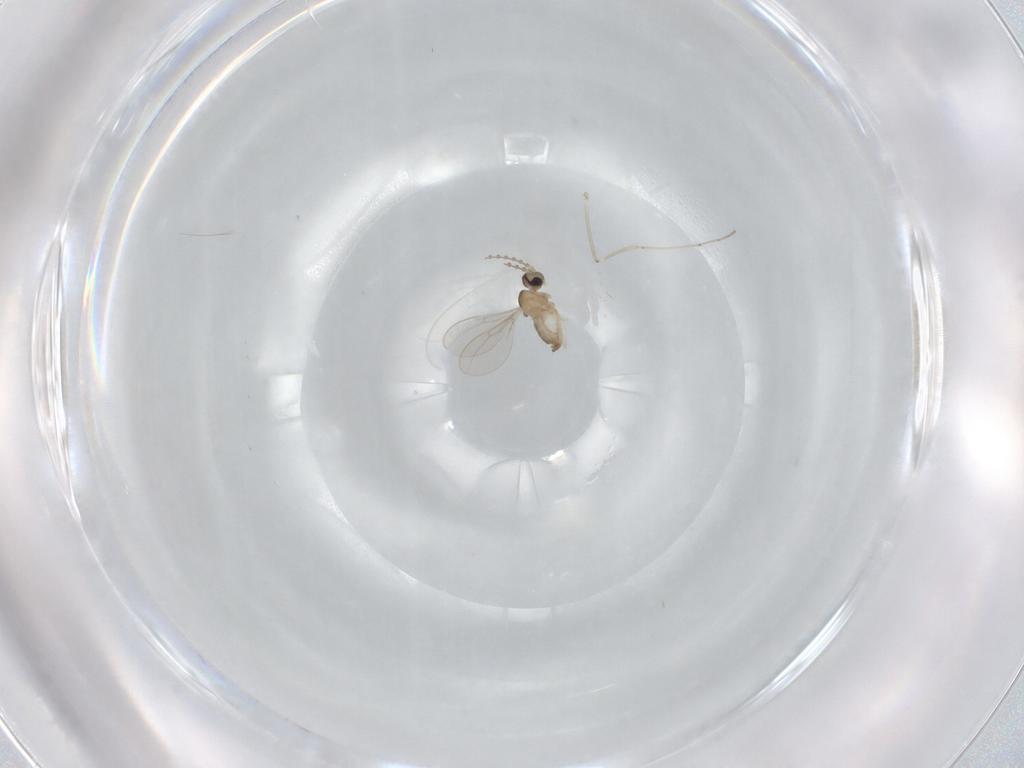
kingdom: Animalia
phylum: Arthropoda
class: Insecta
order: Diptera
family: Cecidomyiidae
